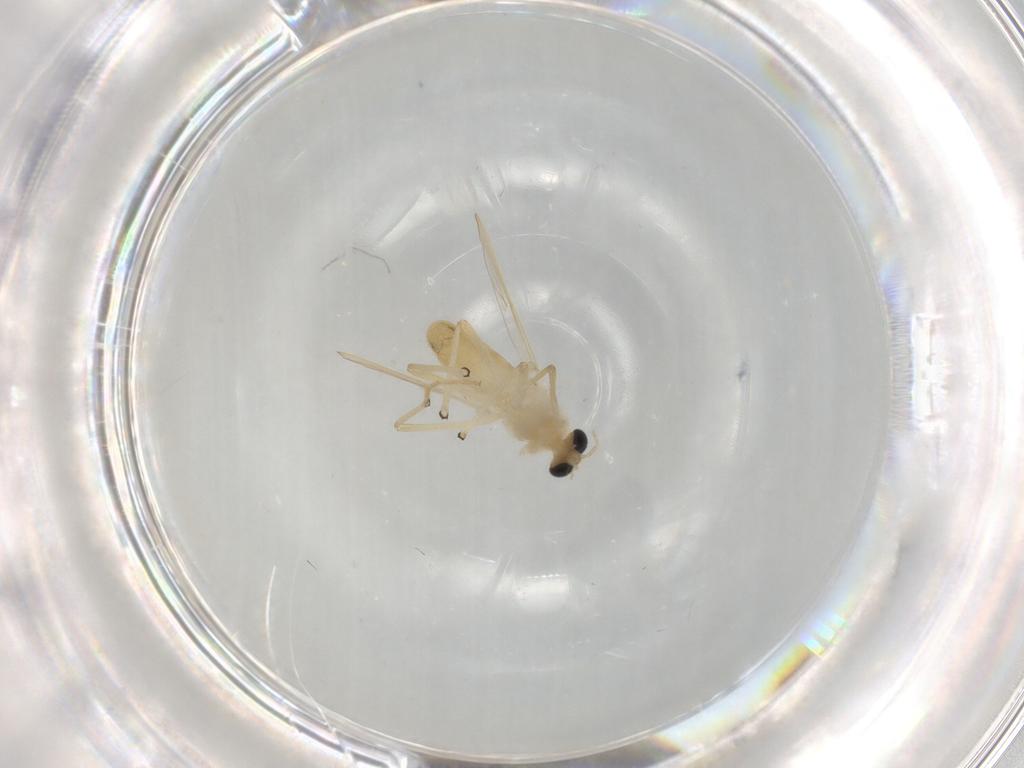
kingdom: Animalia
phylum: Arthropoda
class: Insecta
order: Diptera
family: Chironomidae
